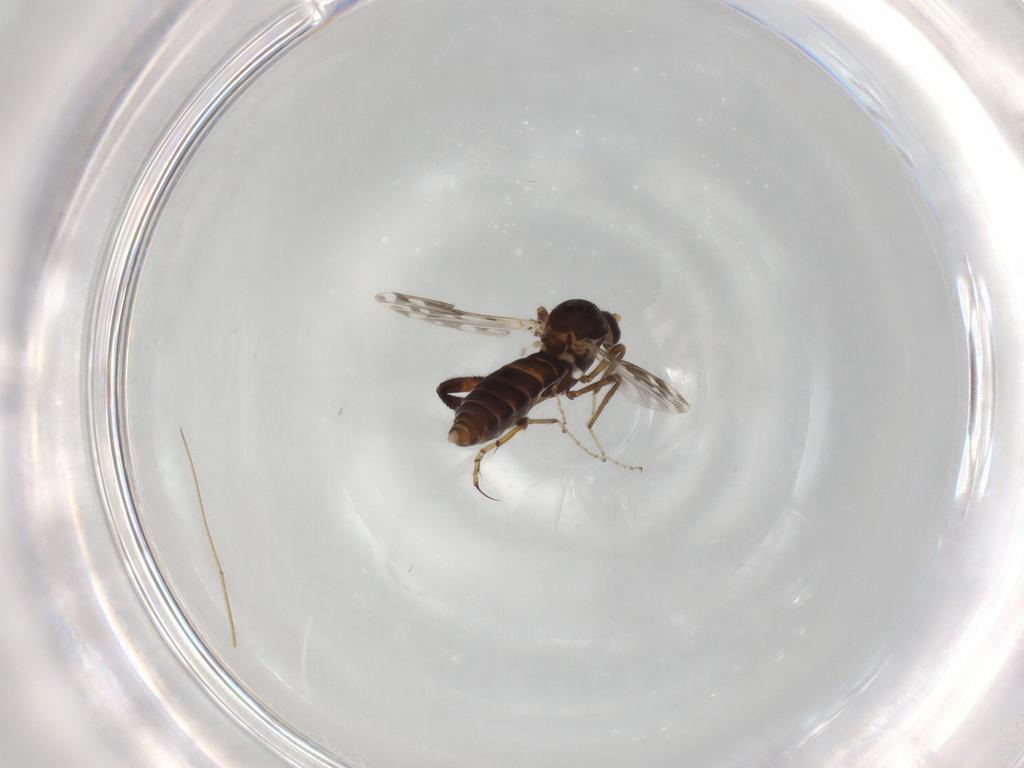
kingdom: Animalia
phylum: Arthropoda
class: Insecta
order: Diptera
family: Ceratopogonidae
